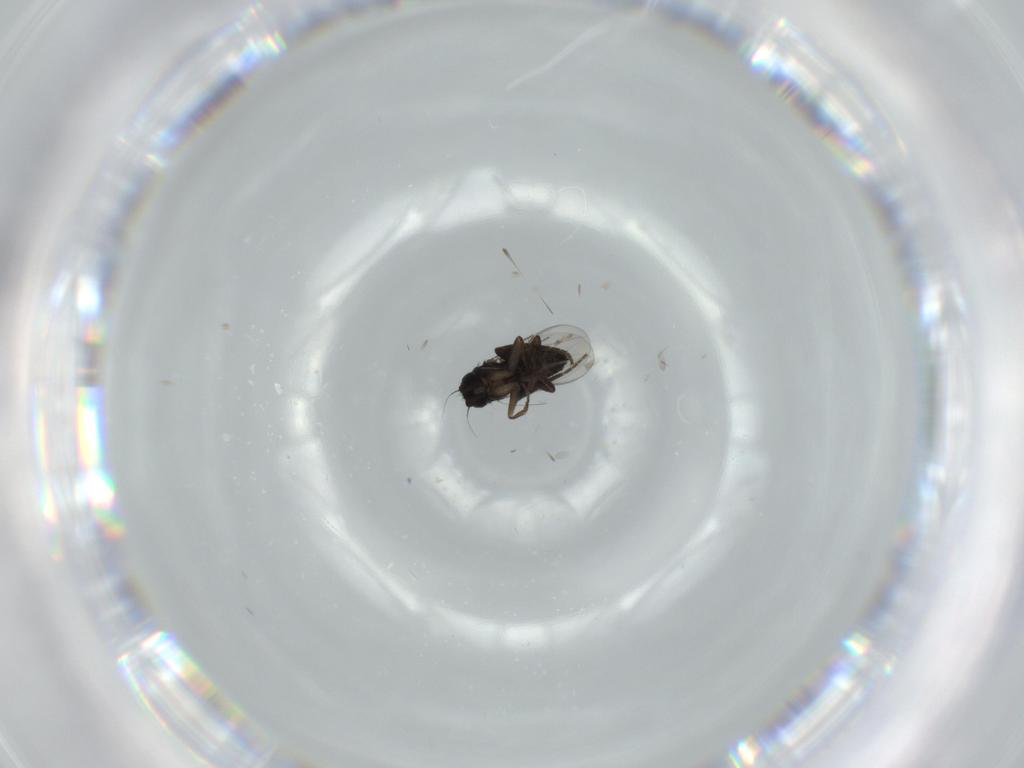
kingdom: Animalia
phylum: Arthropoda
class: Insecta
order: Diptera
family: Phoridae
